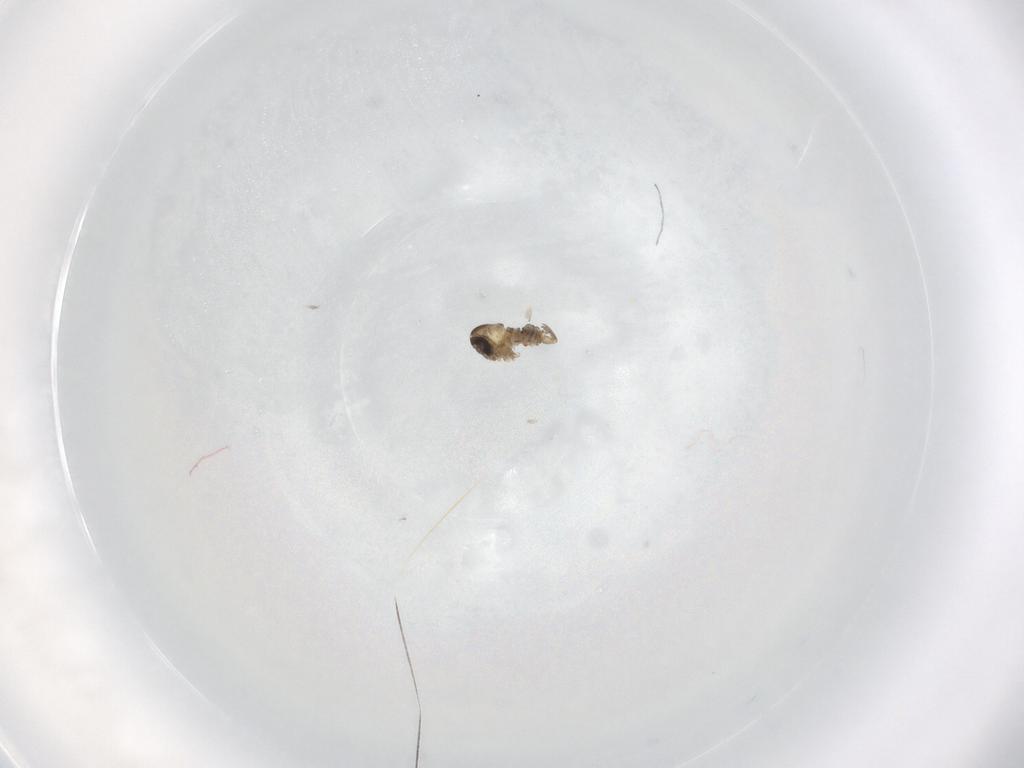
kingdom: Animalia
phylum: Arthropoda
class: Insecta
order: Diptera
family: Psychodidae
